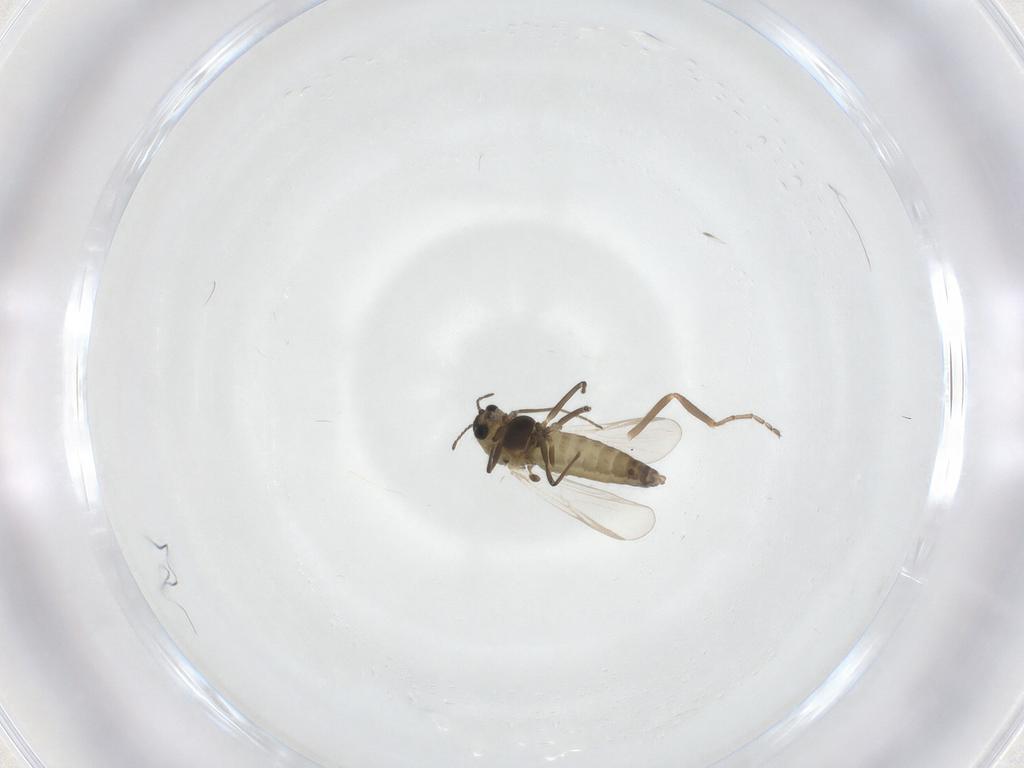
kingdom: Animalia
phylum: Arthropoda
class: Insecta
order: Diptera
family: Chironomidae
